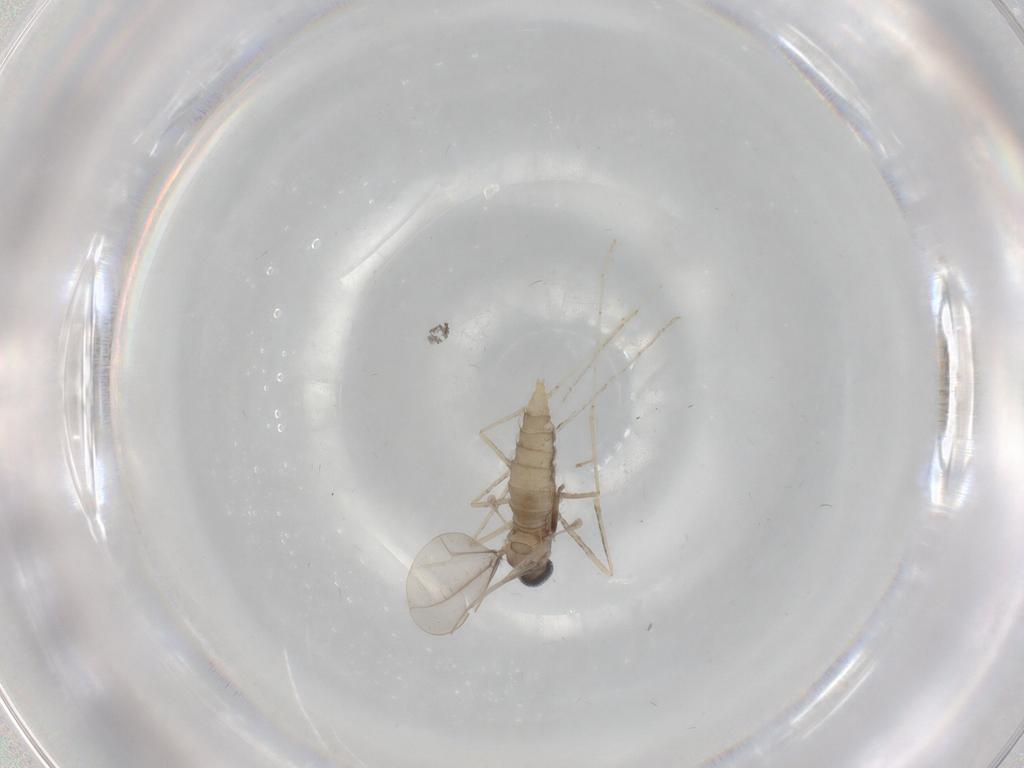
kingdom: Animalia
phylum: Arthropoda
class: Insecta
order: Diptera
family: Cecidomyiidae
